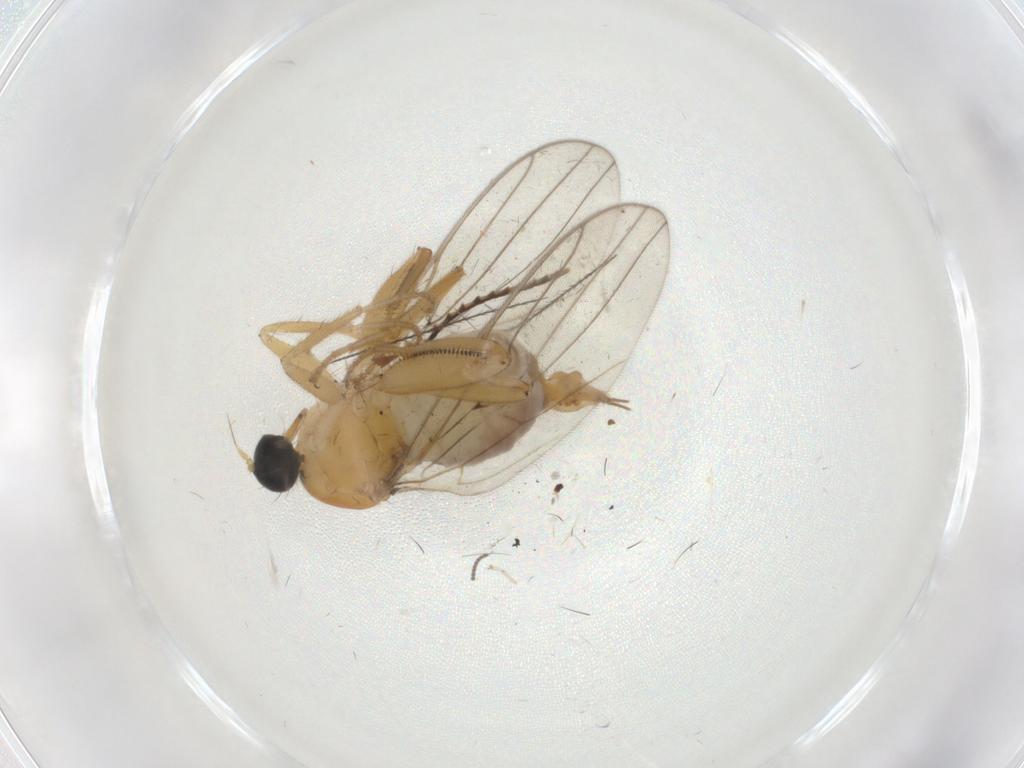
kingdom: Animalia
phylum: Arthropoda
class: Insecta
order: Diptera
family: Hybotidae
